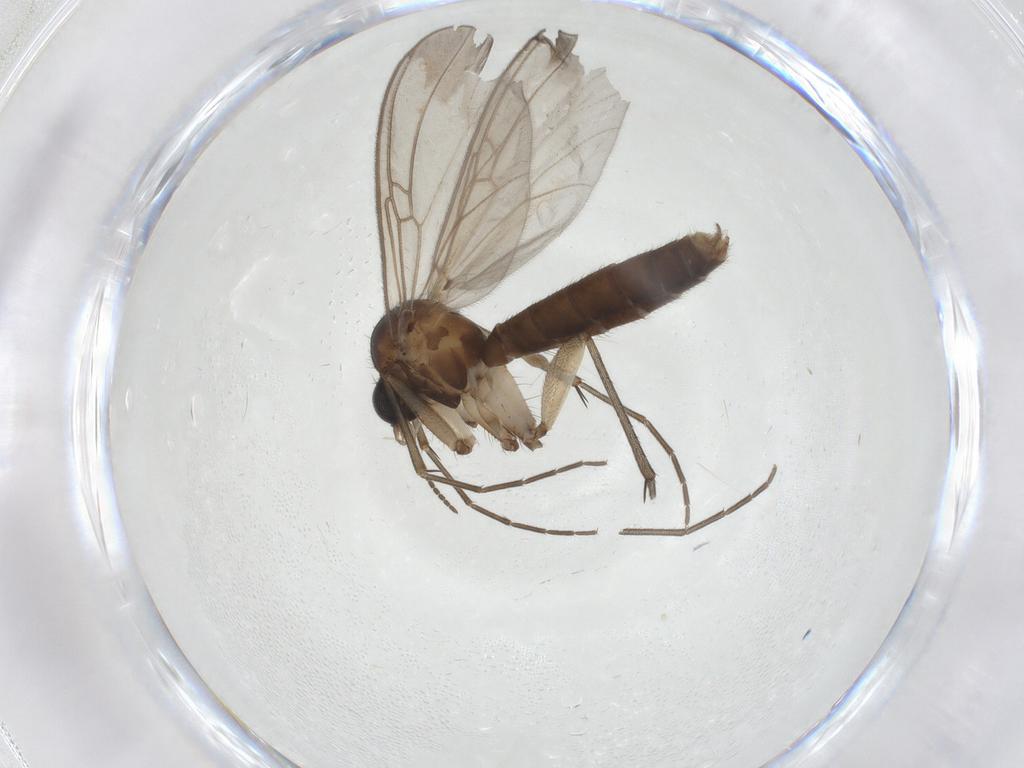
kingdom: Animalia
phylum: Arthropoda
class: Insecta
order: Diptera
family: Mycetophilidae
